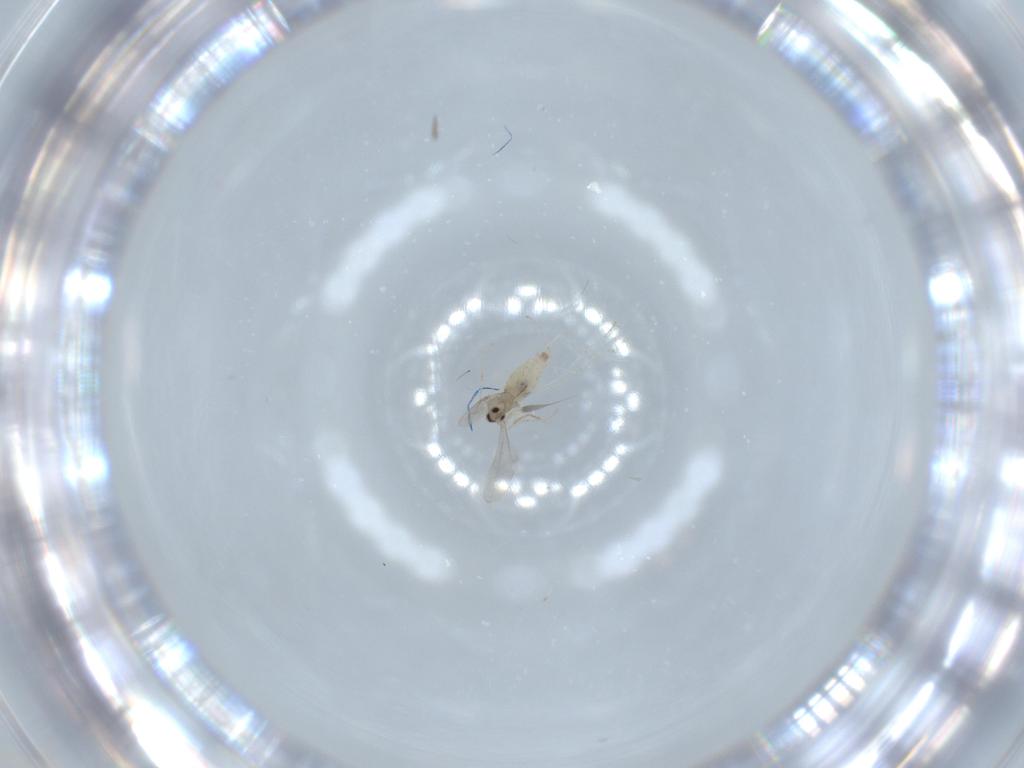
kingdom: Animalia
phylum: Arthropoda
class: Insecta
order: Diptera
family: Cecidomyiidae
